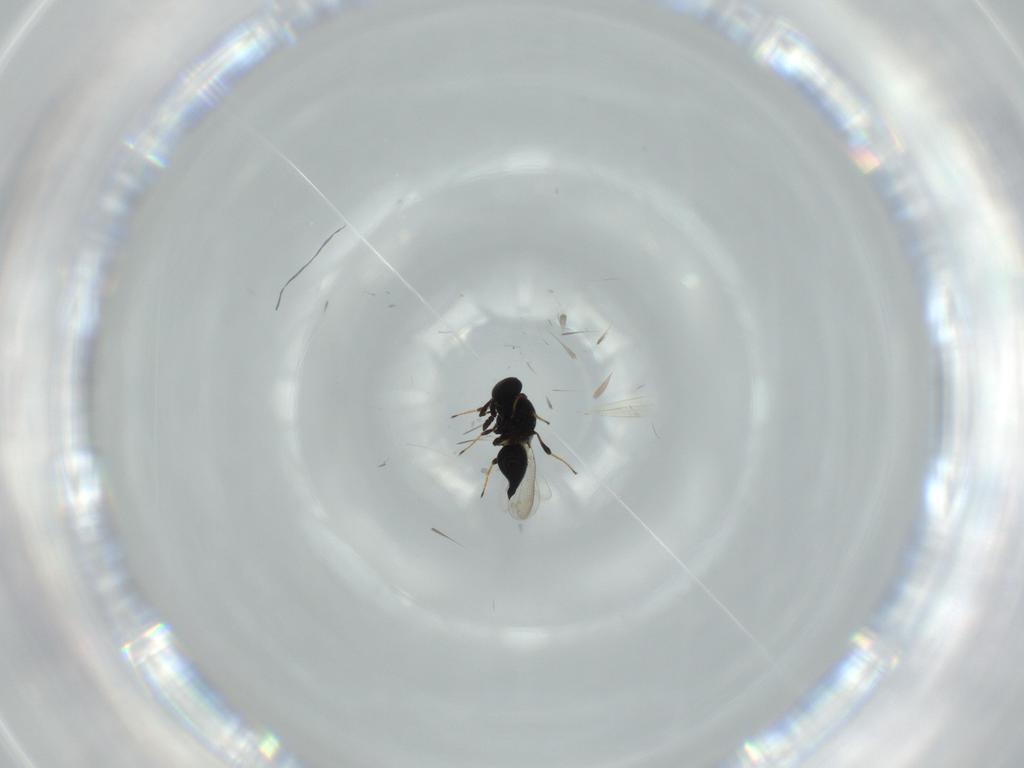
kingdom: Animalia
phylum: Arthropoda
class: Insecta
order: Hymenoptera
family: Platygastridae
